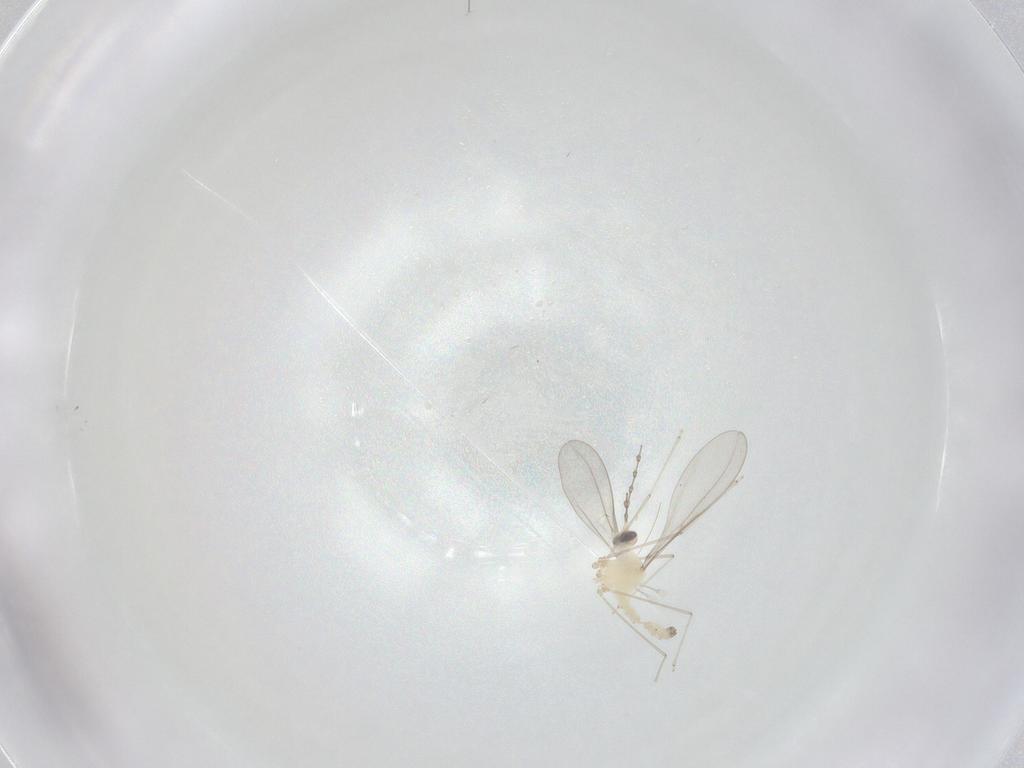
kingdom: Animalia
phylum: Arthropoda
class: Insecta
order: Diptera
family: Cecidomyiidae
